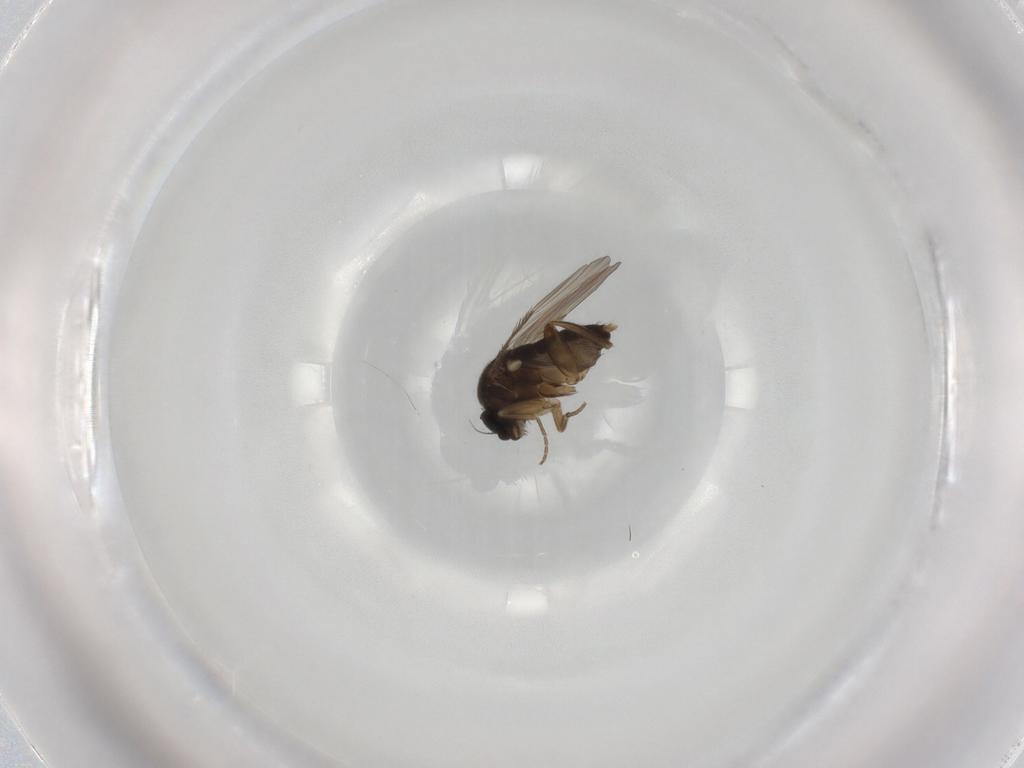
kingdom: Animalia
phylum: Arthropoda
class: Insecta
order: Diptera
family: Phoridae
